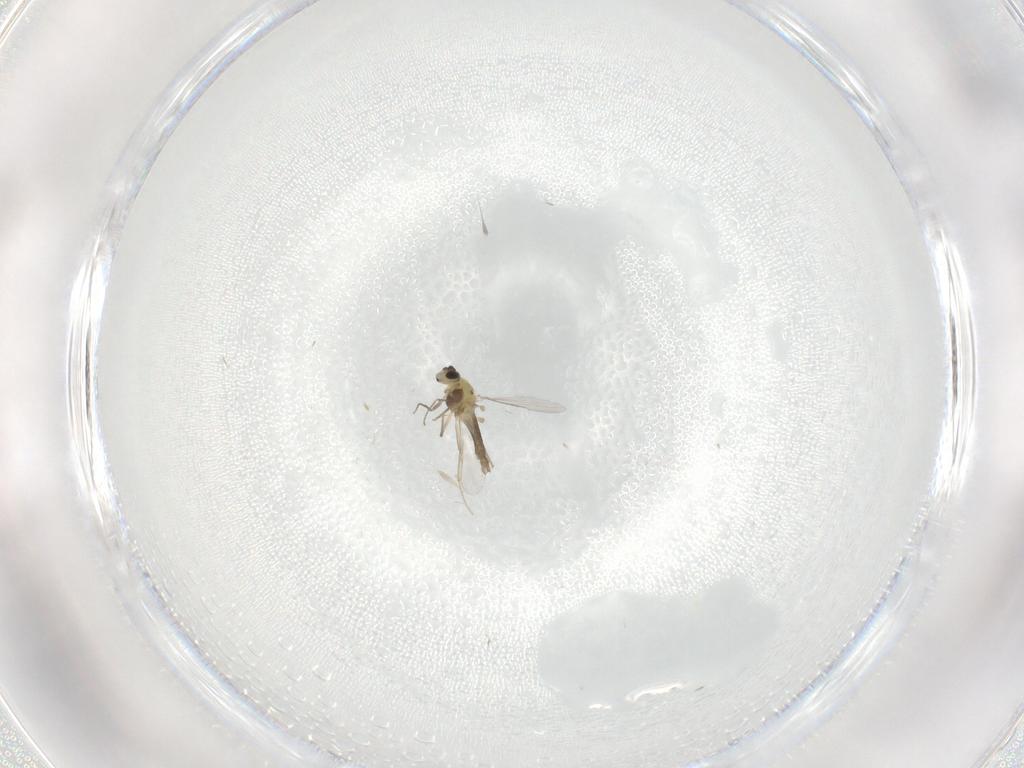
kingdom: Animalia
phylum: Arthropoda
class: Insecta
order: Diptera
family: Chironomidae
